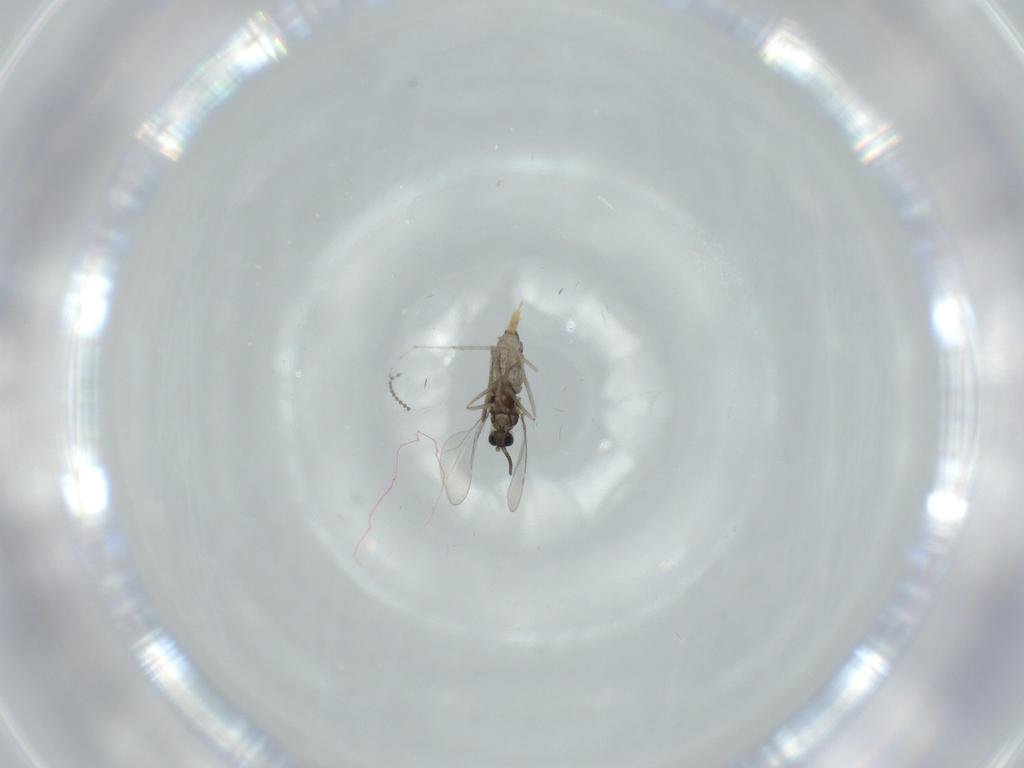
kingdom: Animalia
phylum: Arthropoda
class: Insecta
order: Diptera
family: Cecidomyiidae
